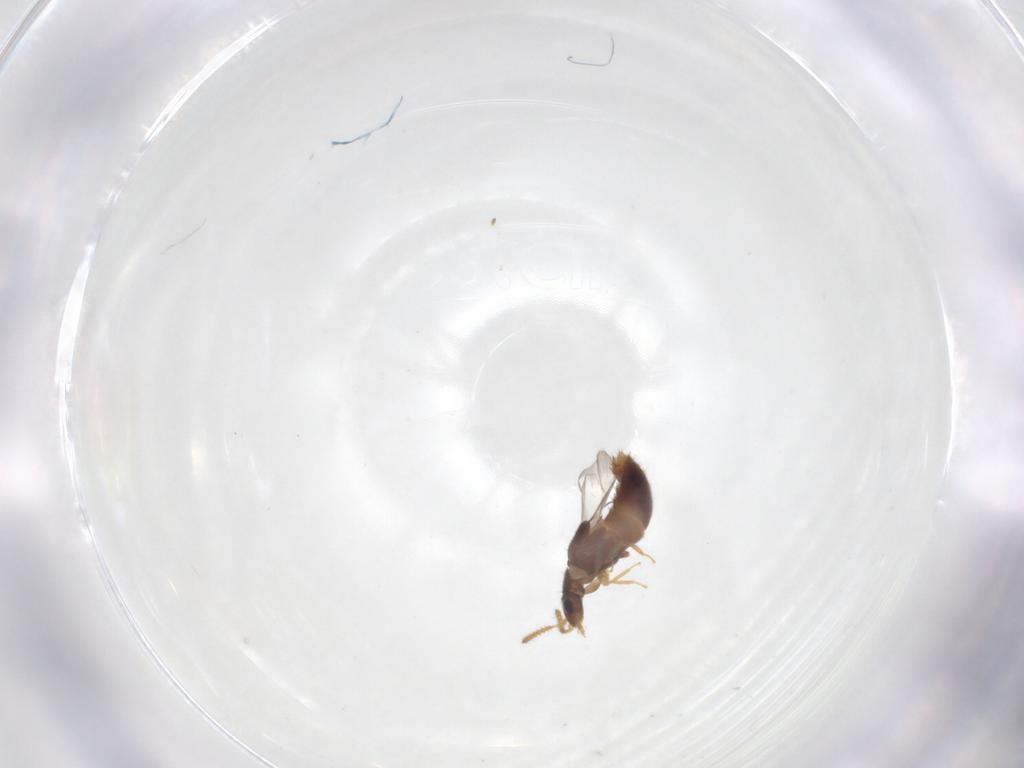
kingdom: Animalia
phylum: Arthropoda
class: Insecta
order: Coleoptera
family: Staphylinidae
